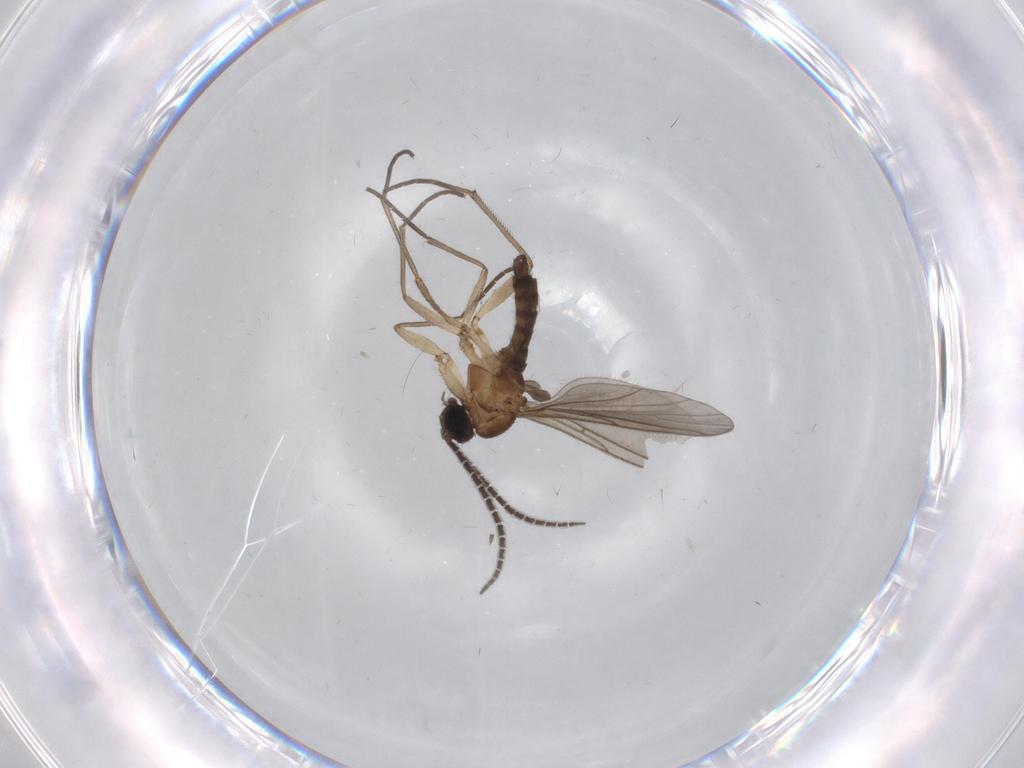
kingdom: Animalia
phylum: Arthropoda
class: Insecta
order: Diptera
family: Sciaridae
